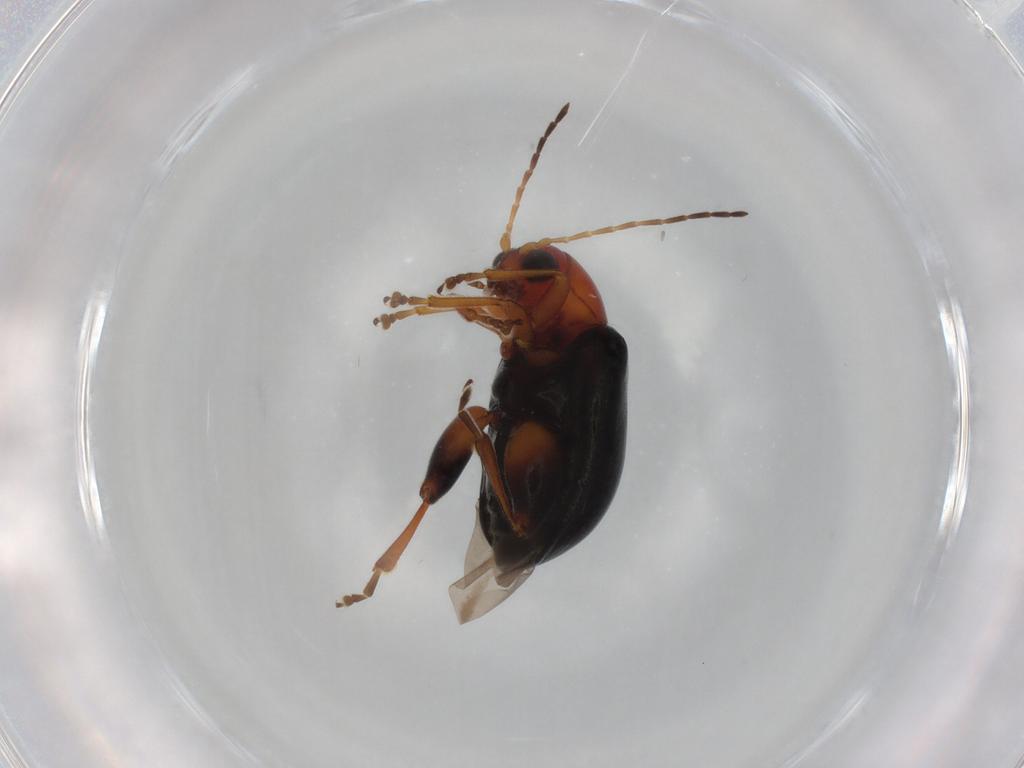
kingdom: Animalia
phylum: Arthropoda
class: Insecta
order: Coleoptera
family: Chrysomelidae
